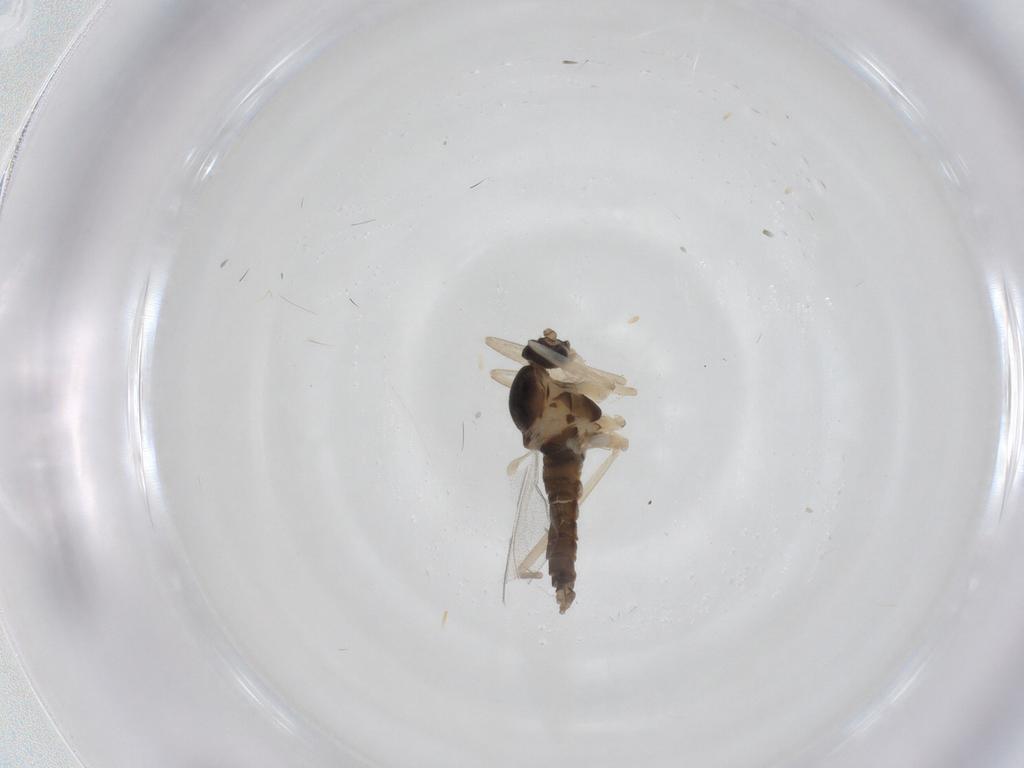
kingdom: Animalia
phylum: Arthropoda
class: Insecta
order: Diptera
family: Cecidomyiidae
